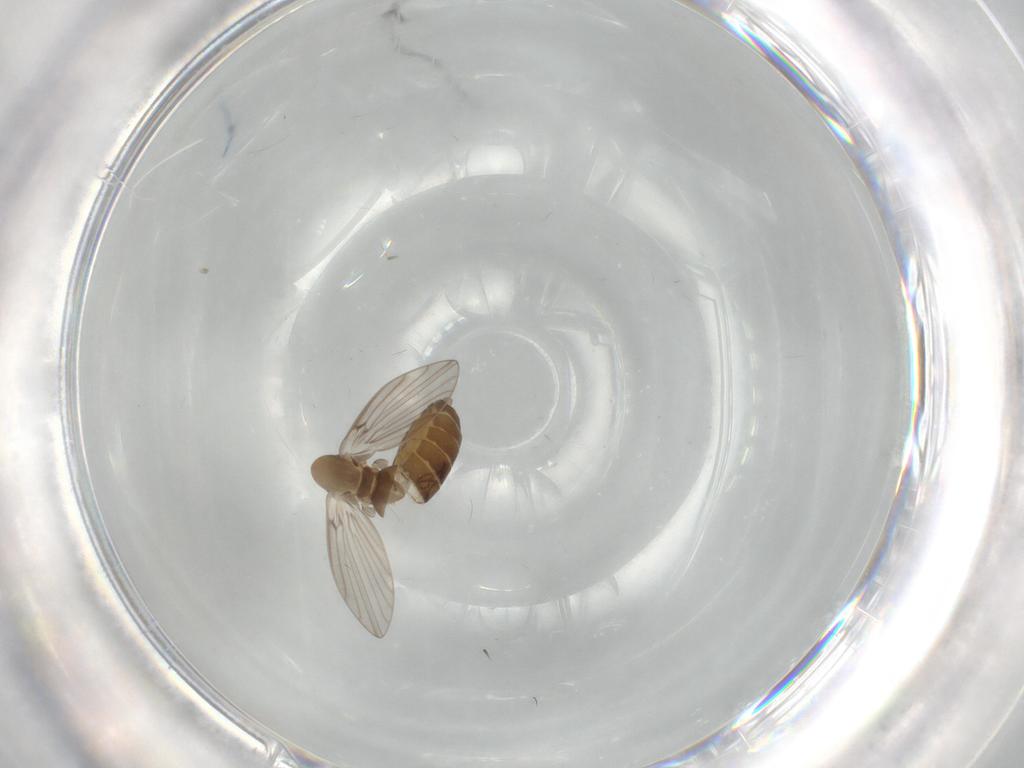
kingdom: Animalia
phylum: Arthropoda
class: Insecta
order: Diptera
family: Psychodidae
